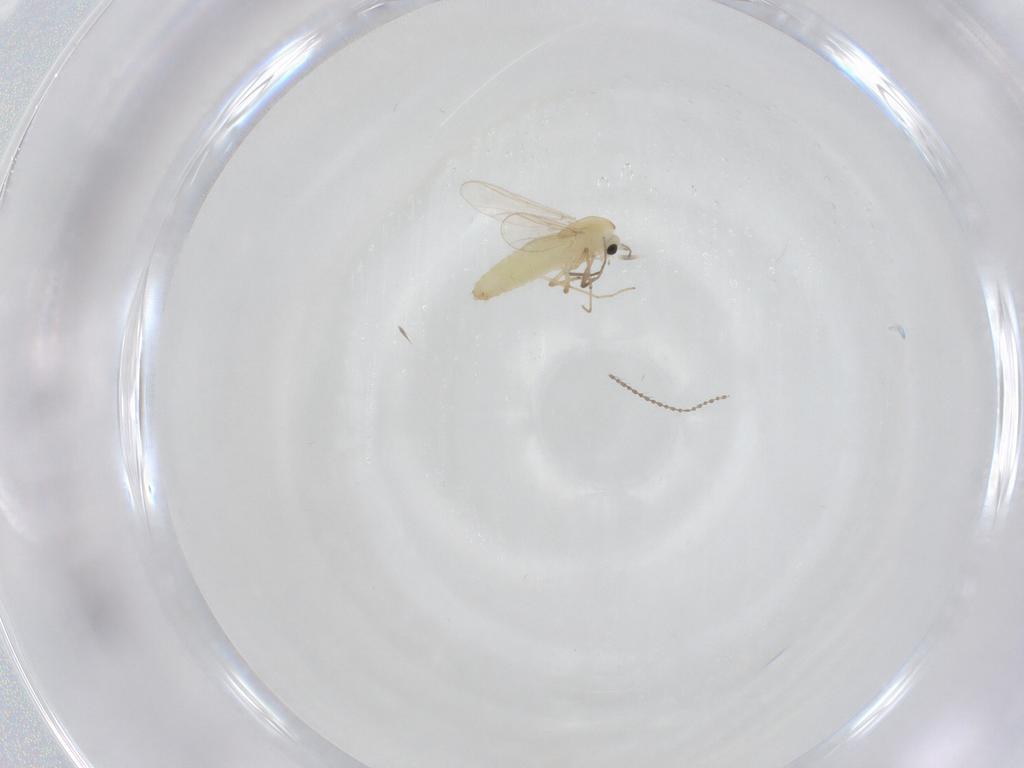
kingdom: Animalia
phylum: Arthropoda
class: Insecta
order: Diptera
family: Chironomidae
